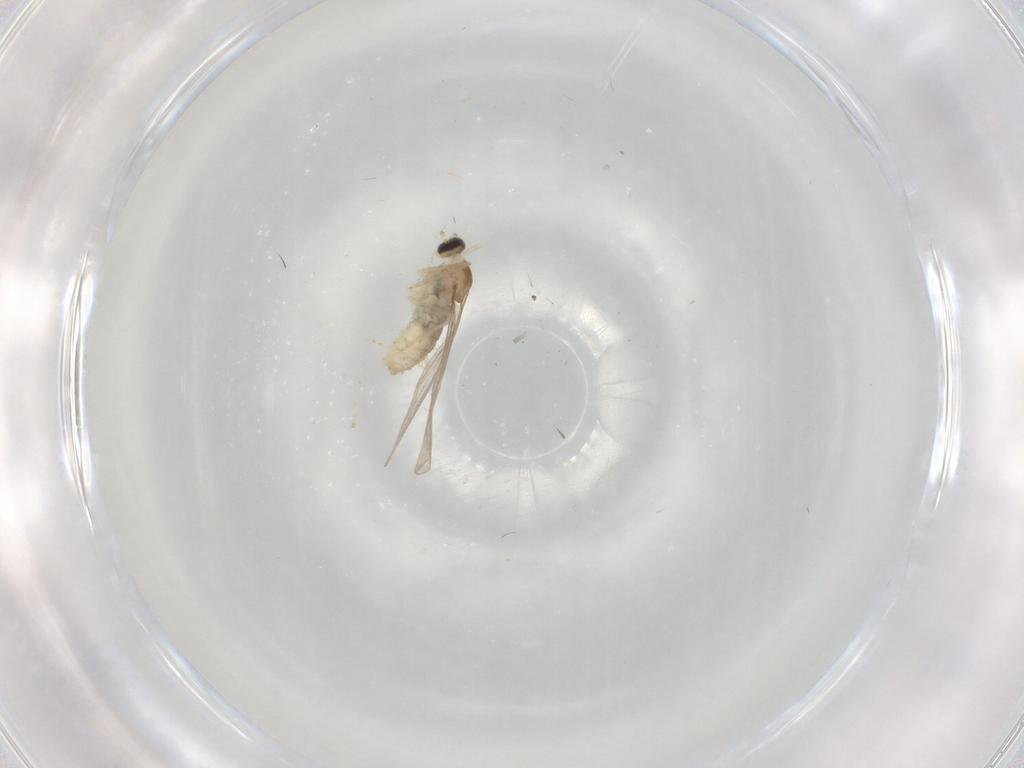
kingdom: Animalia
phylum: Arthropoda
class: Insecta
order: Diptera
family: Cecidomyiidae
